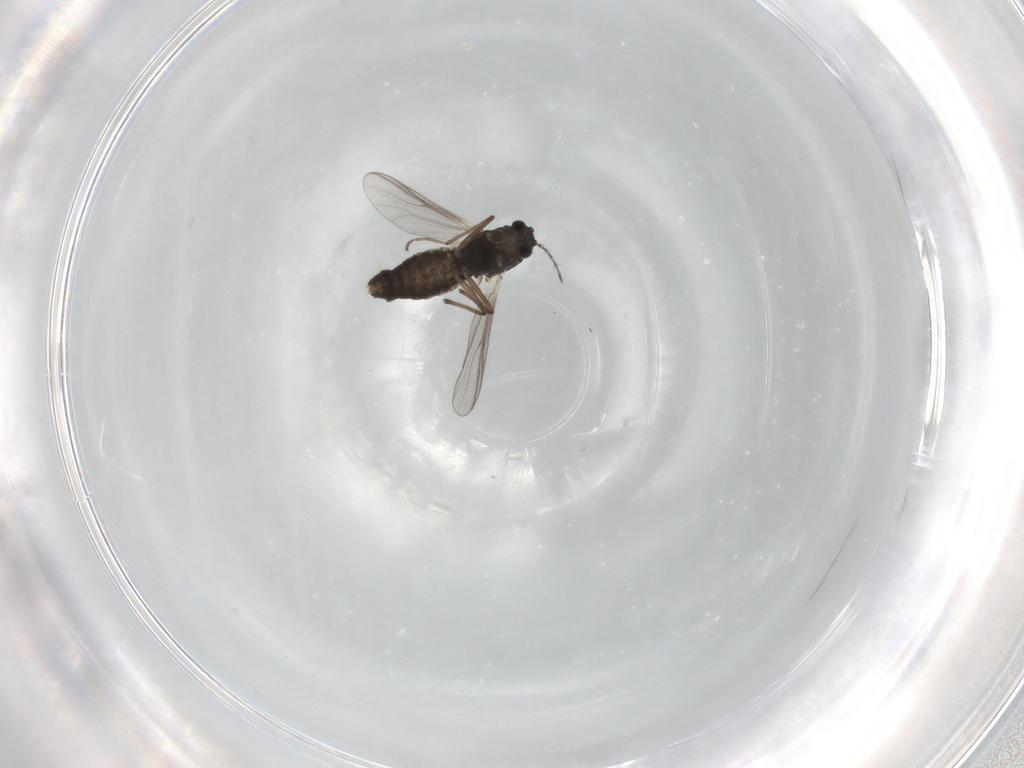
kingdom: Animalia
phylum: Arthropoda
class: Insecta
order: Diptera
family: Chironomidae
